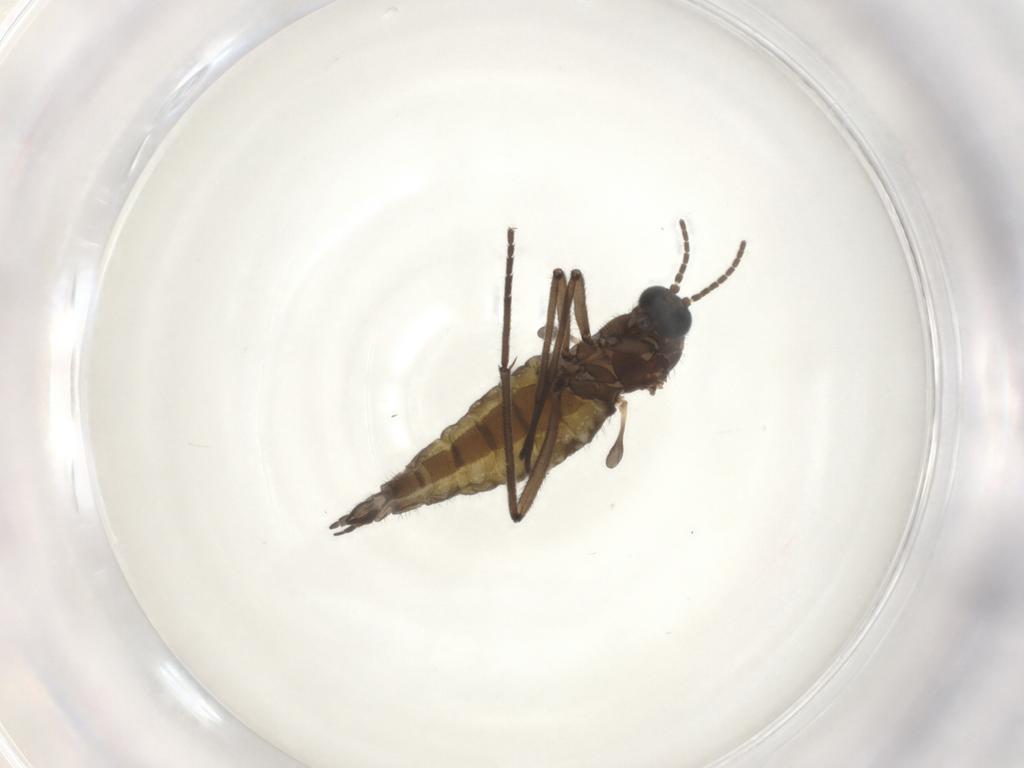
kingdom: Animalia
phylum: Arthropoda
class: Insecta
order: Diptera
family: Sciaridae
